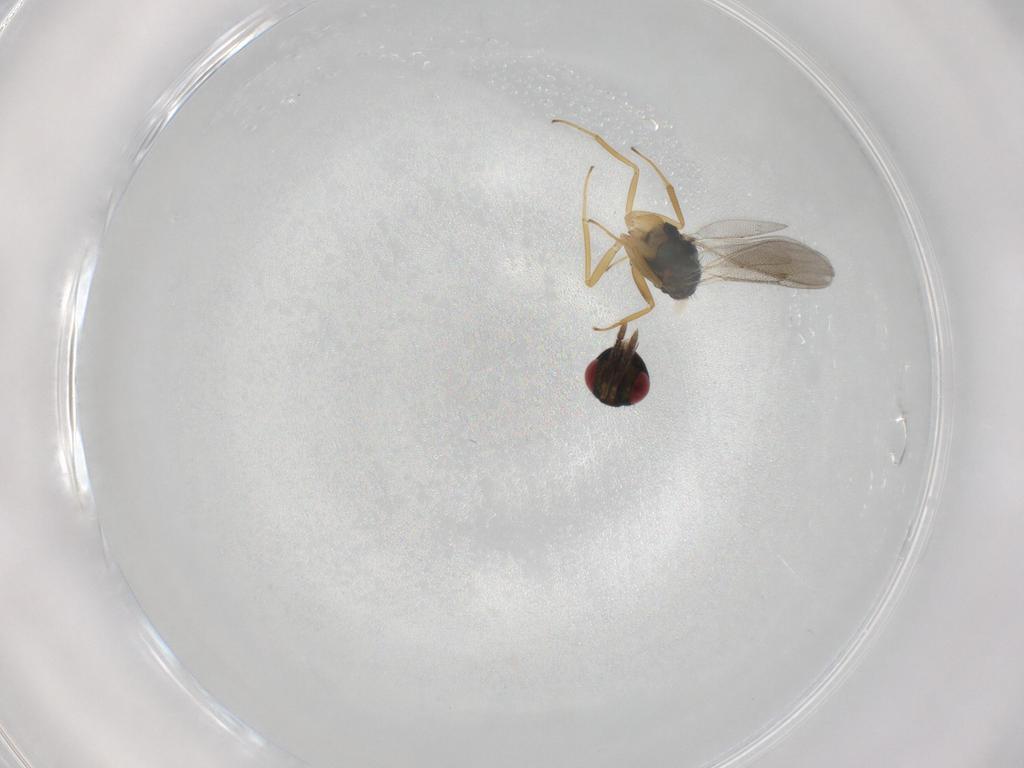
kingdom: Animalia
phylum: Arthropoda
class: Insecta
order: Hymenoptera
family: Eulophidae
